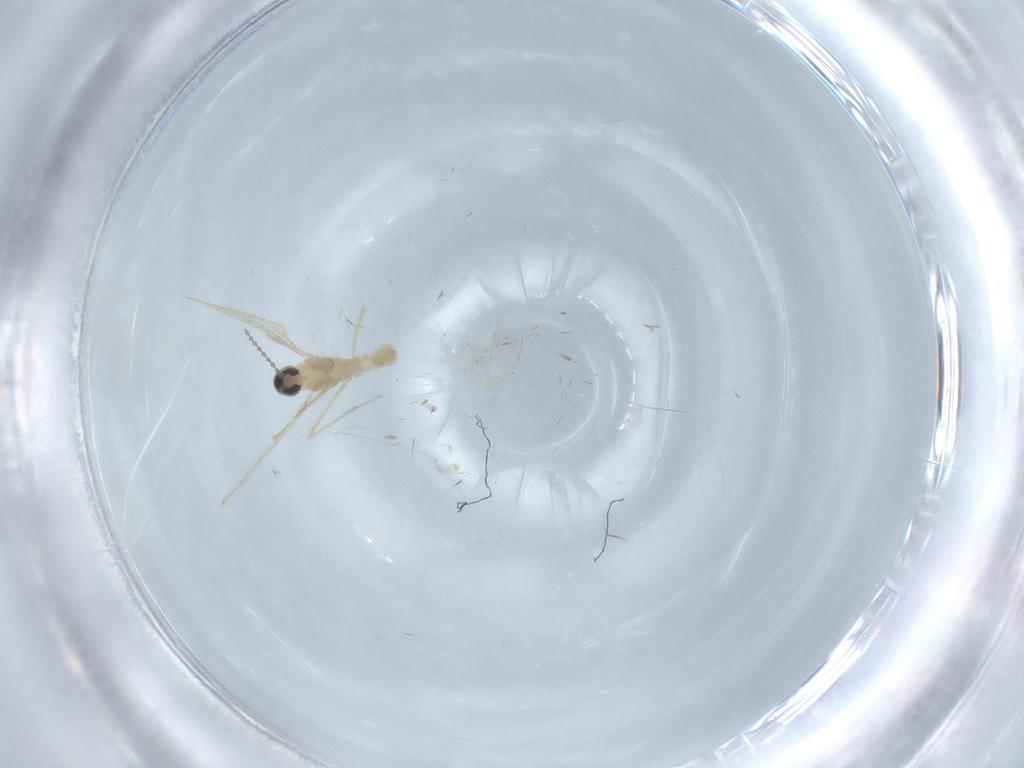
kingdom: Animalia
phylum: Arthropoda
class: Insecta
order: Diptera
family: Cecidomyiidae
